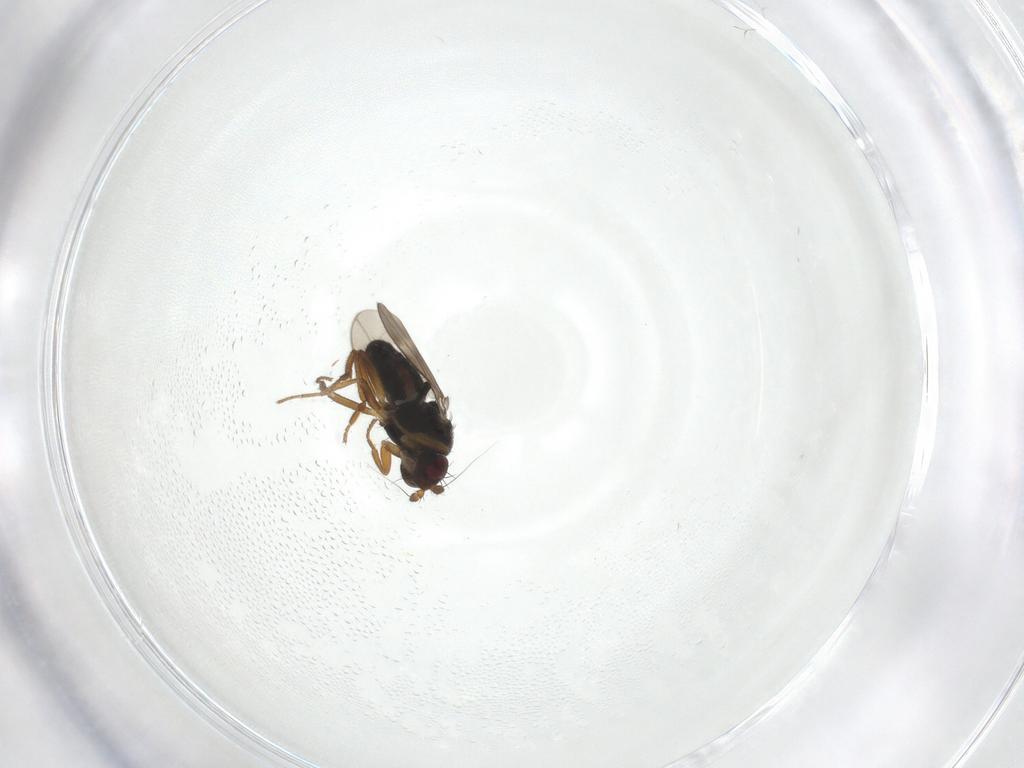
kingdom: Animalia
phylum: Arthropoda
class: Insecta
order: Diptera
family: Sphaeroceridae
